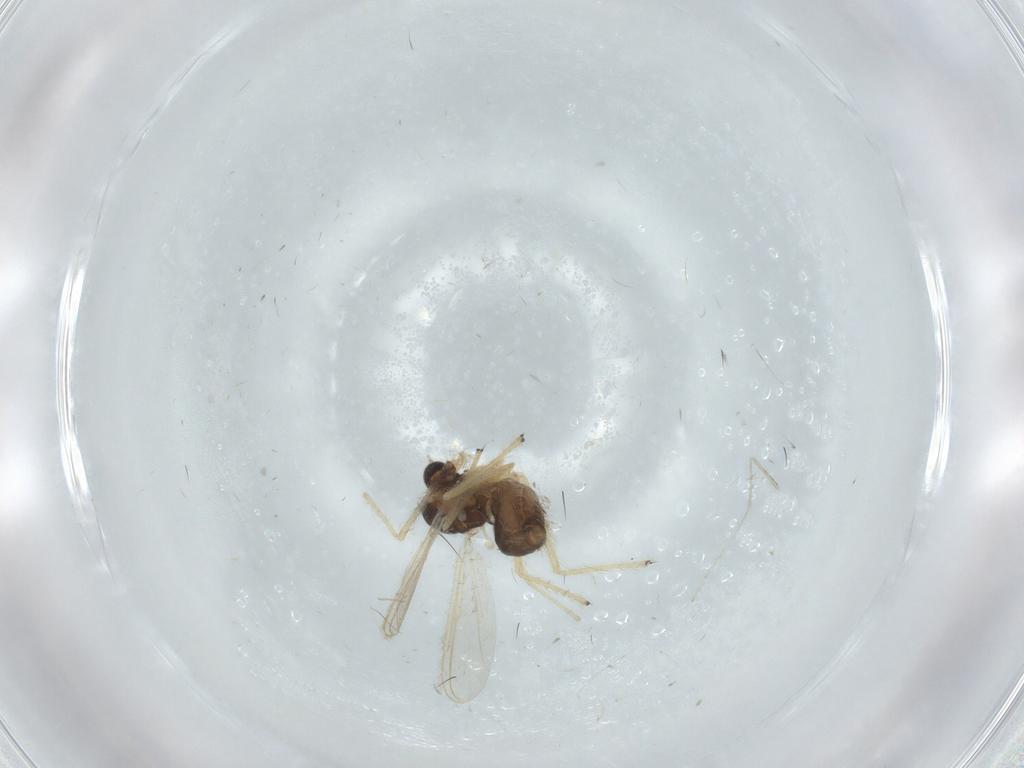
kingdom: Animalia
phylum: Arthropoda
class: Insecta
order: Diptera
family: Chironomidae
